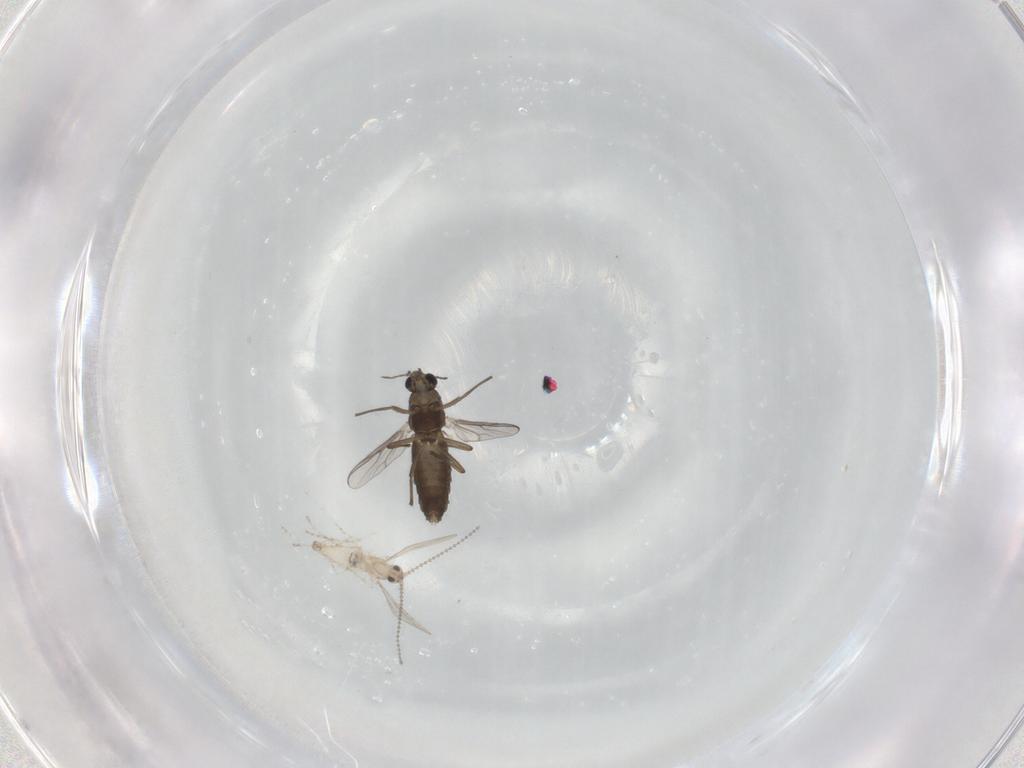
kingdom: Animalia
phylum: Arthropoda
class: Insecta
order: Diptera
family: Chironomidae
